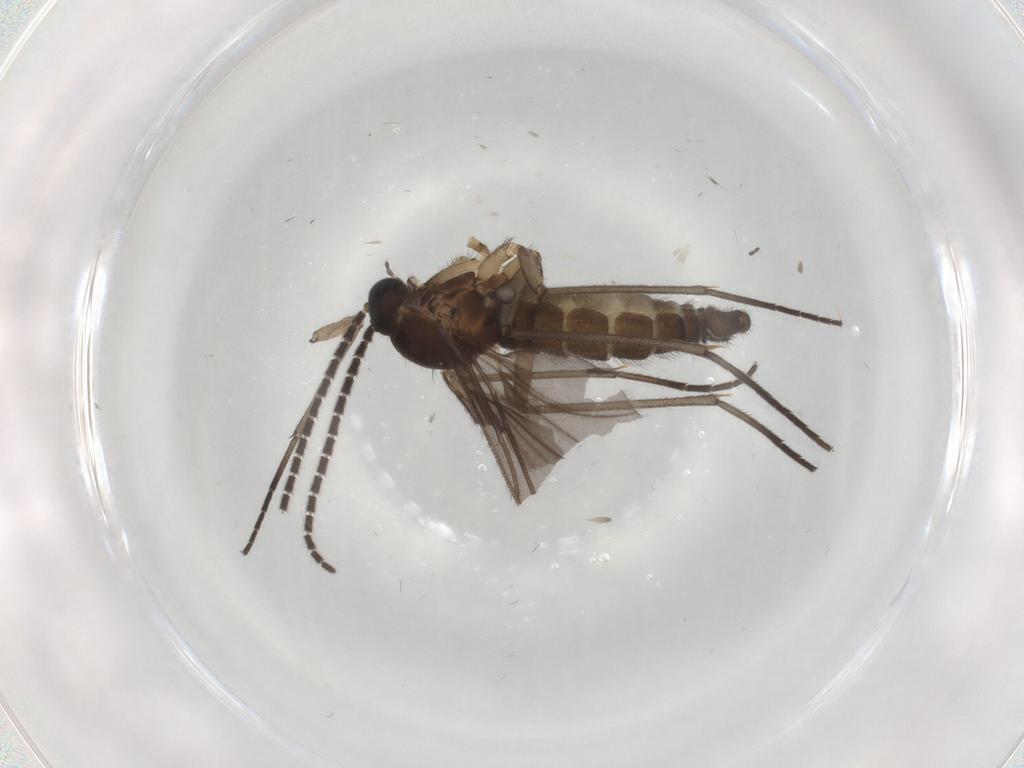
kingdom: Animalia
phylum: Arthropoda
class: Insecta
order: Diptera
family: Sciaridae
